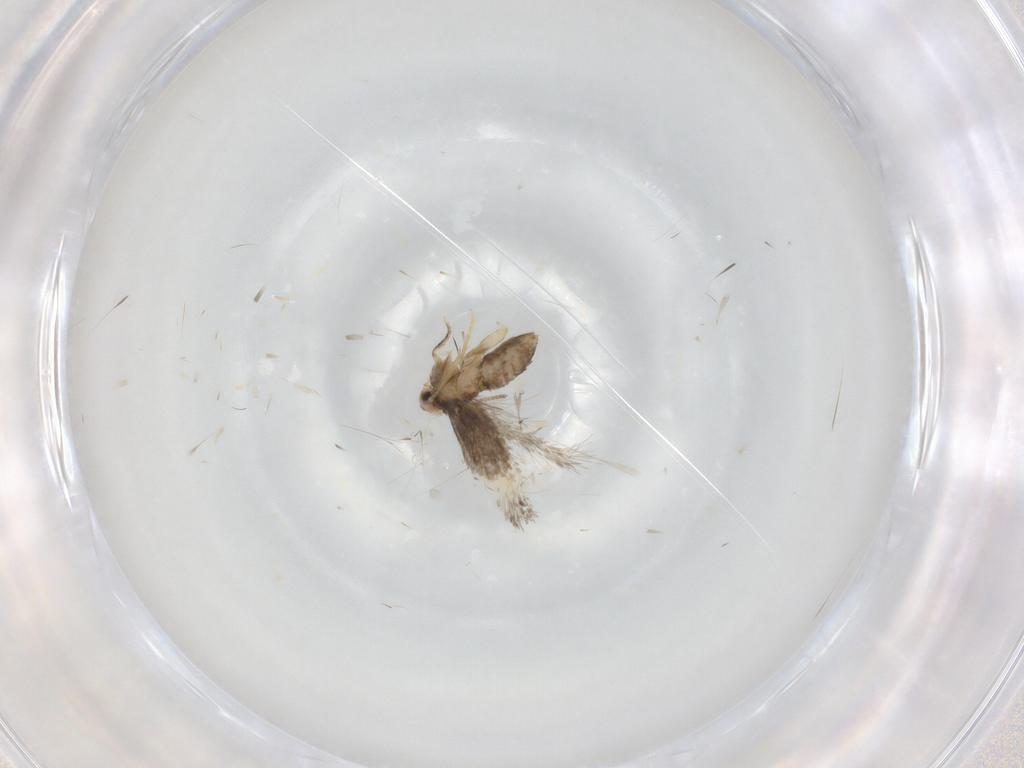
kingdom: Animalia
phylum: Arthropoda
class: Insecta
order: Lepidoptera
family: Nepticulidae
